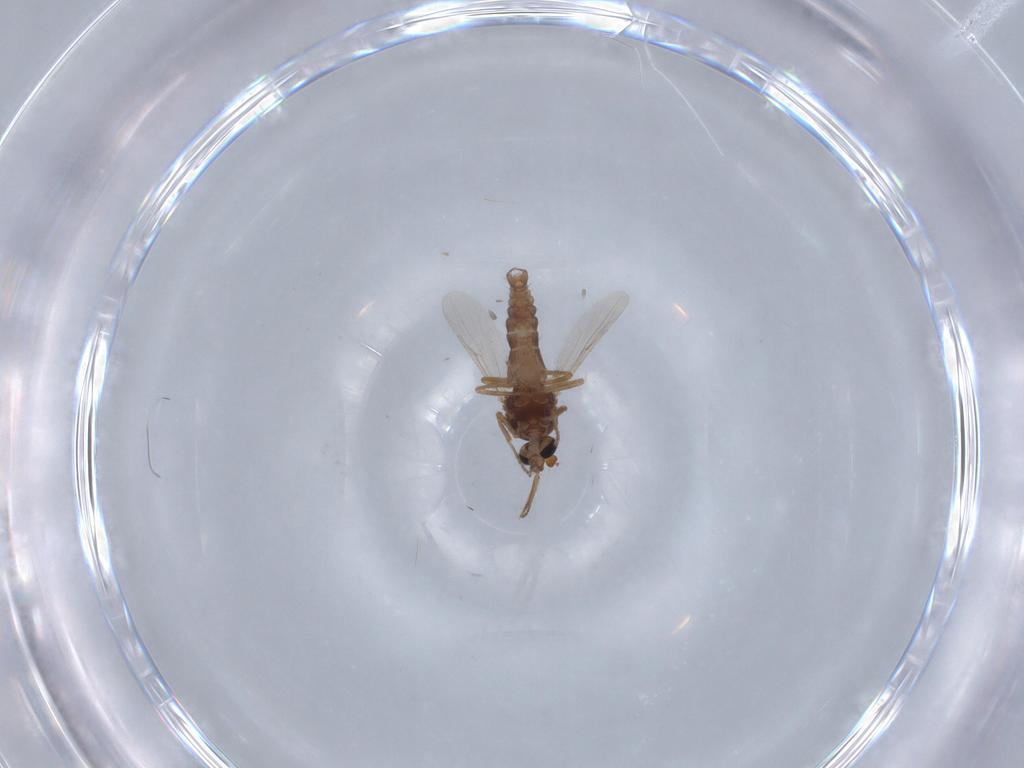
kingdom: Animalia
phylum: Arthropoda
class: Insecta
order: Diptera
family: Ceratopogonidae
